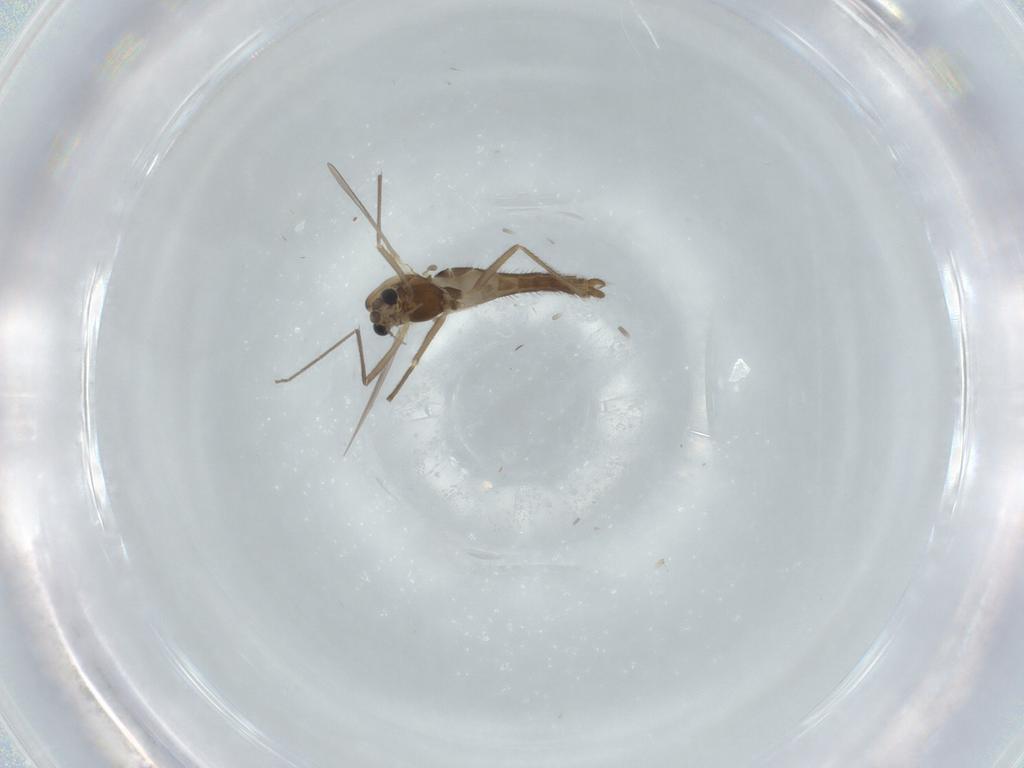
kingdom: Animalia
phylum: Arthropoda
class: Insecta
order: Diptera
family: Chironomidae
